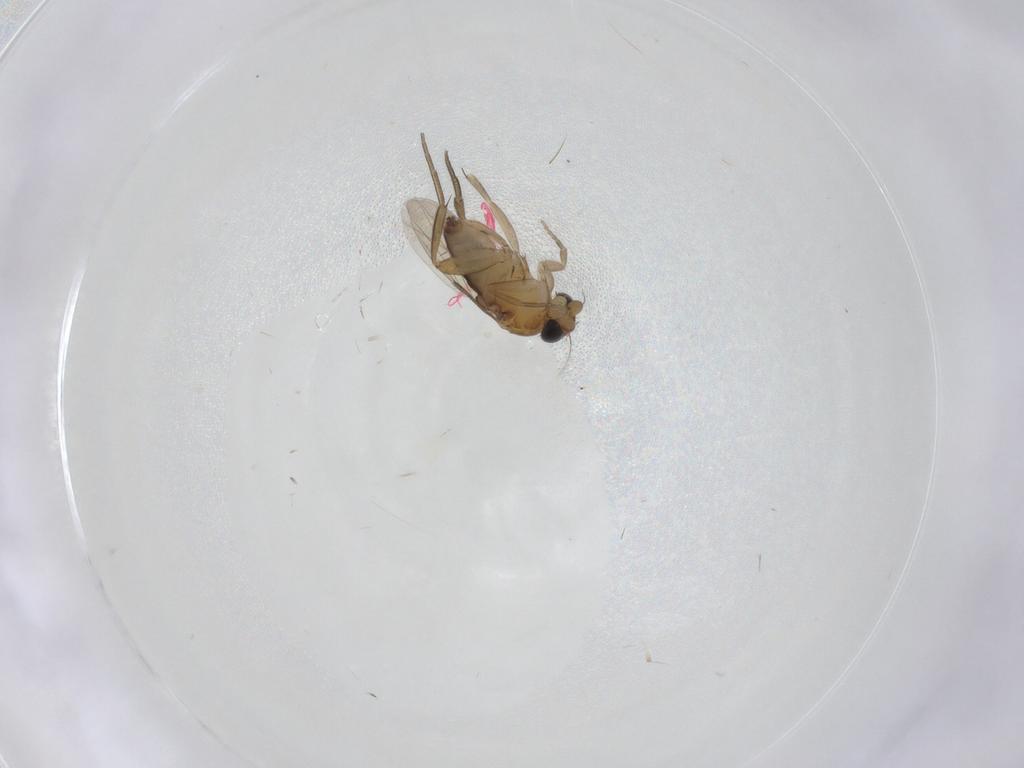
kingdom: Animalia
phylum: Arthropoda
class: Insecta
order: Diptera
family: Phoridae
